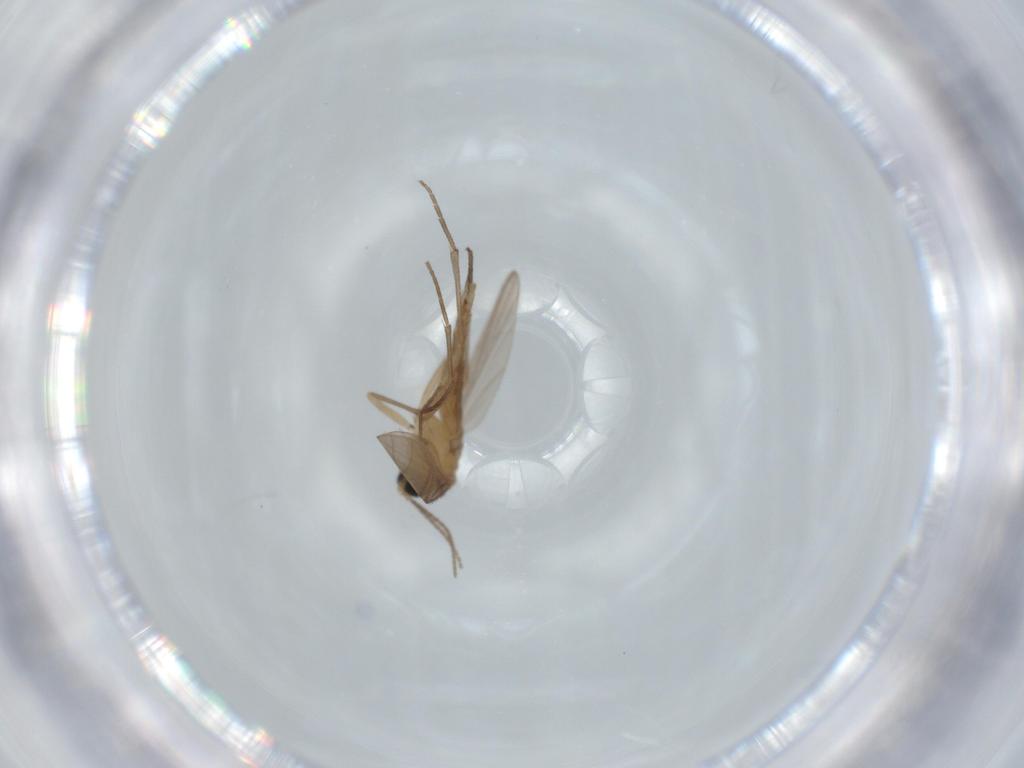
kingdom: Animalia
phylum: Arthropoda
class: Insecta
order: Diptera
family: Sciaridae
